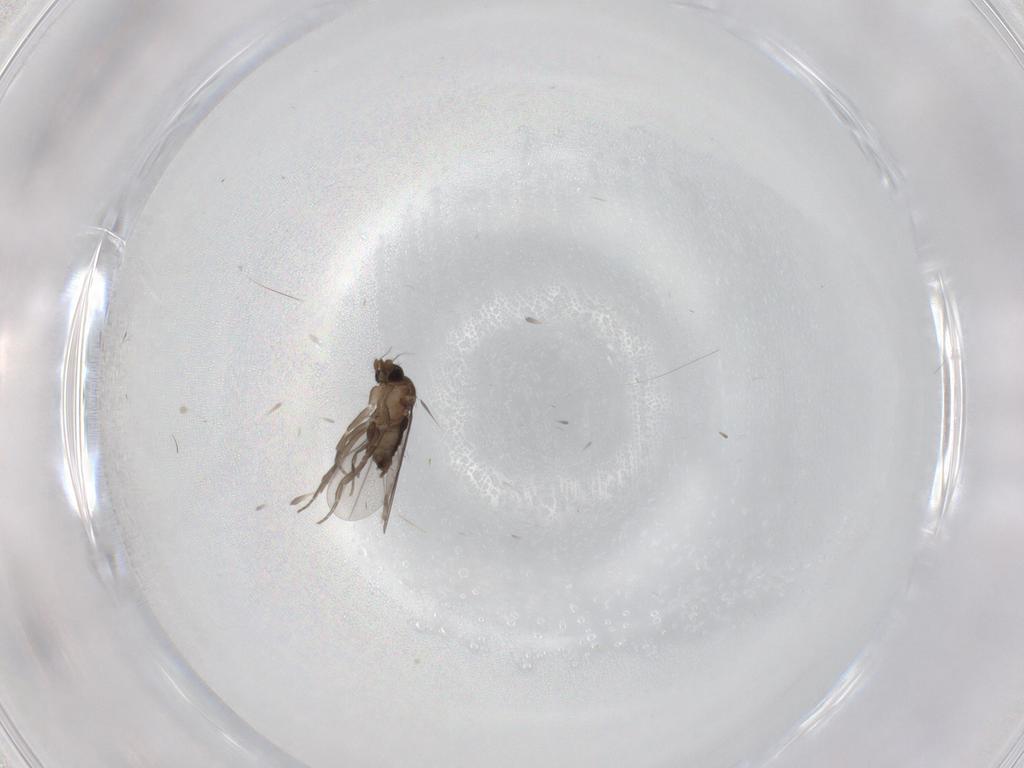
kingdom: Animalia
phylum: Arthropoda
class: Insecta
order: Diptera
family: Phoridae
